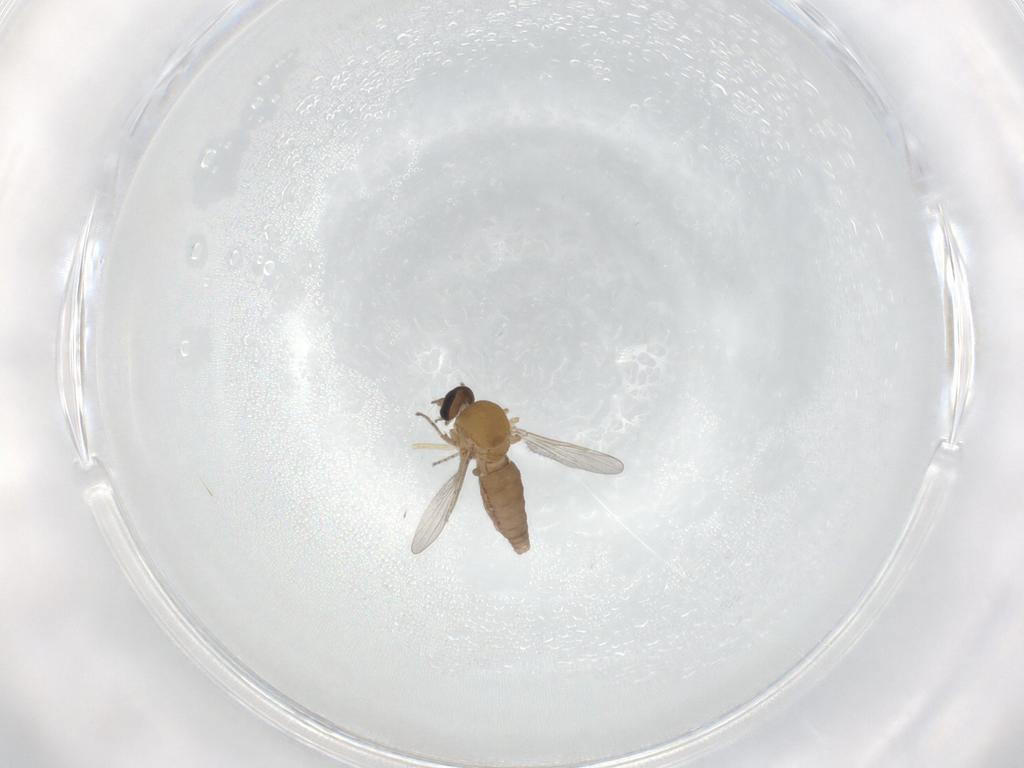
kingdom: Animalia
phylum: Arthropoda
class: Insecta
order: Diptera
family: Ceratopogonidae
